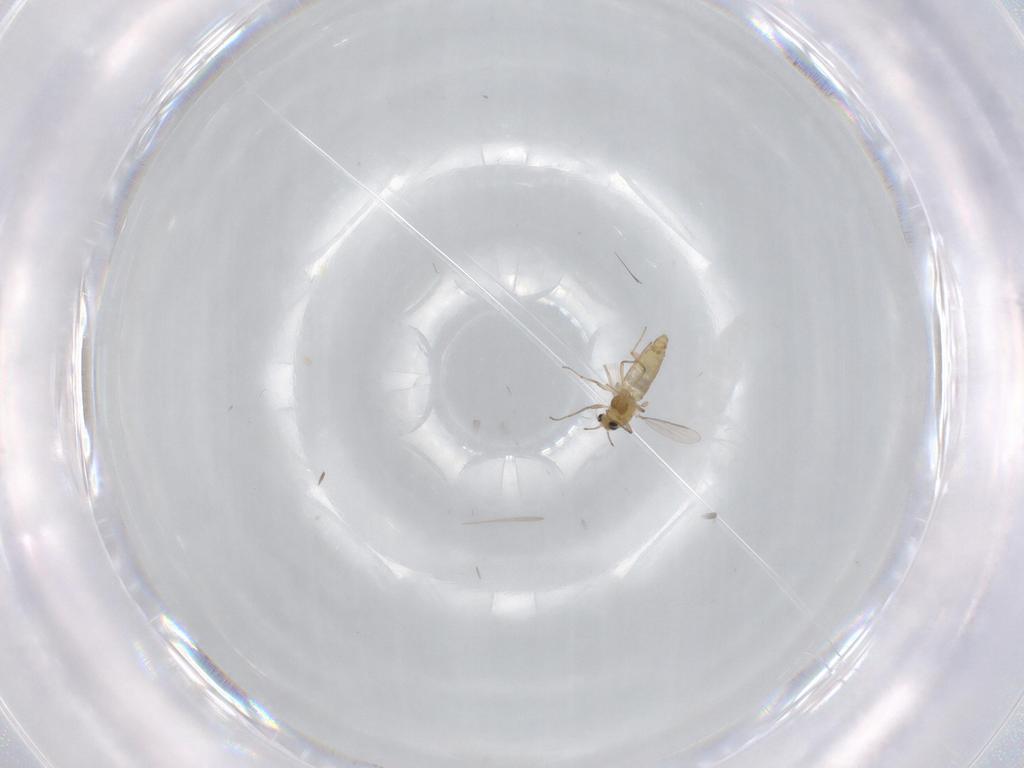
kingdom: Animalia
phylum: Arthropoda
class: Insecta
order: Diptera
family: Chironomidae
